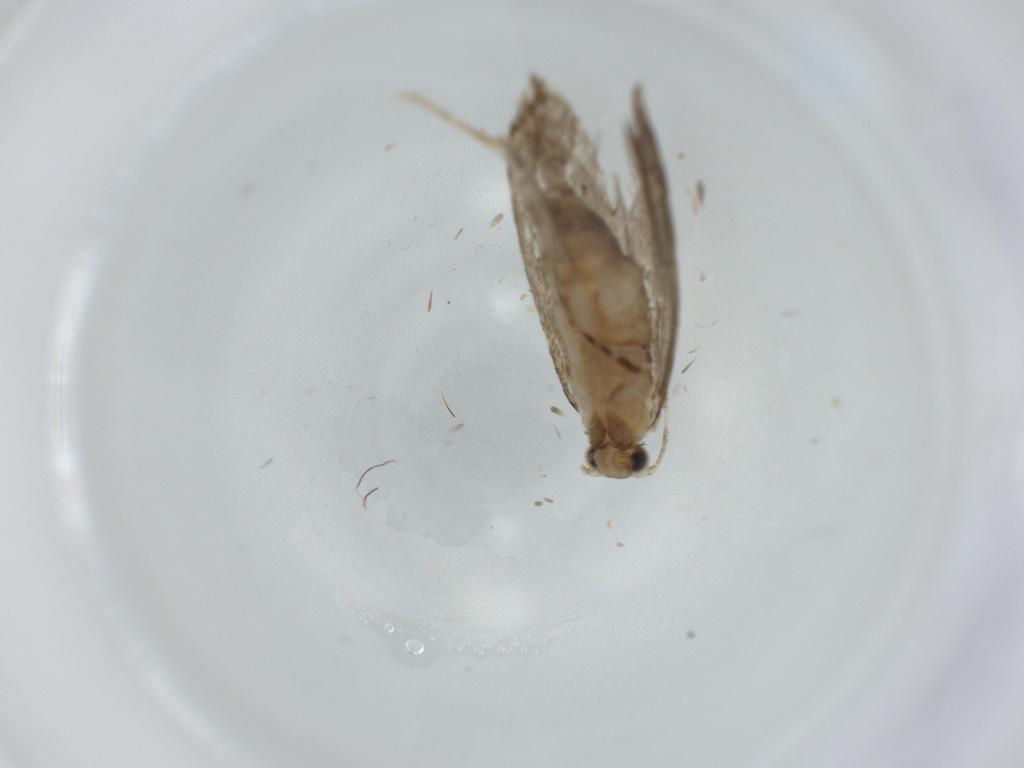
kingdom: Animalia
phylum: Arthropoda
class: Insecta
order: Lepidoptera
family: Tineidae
